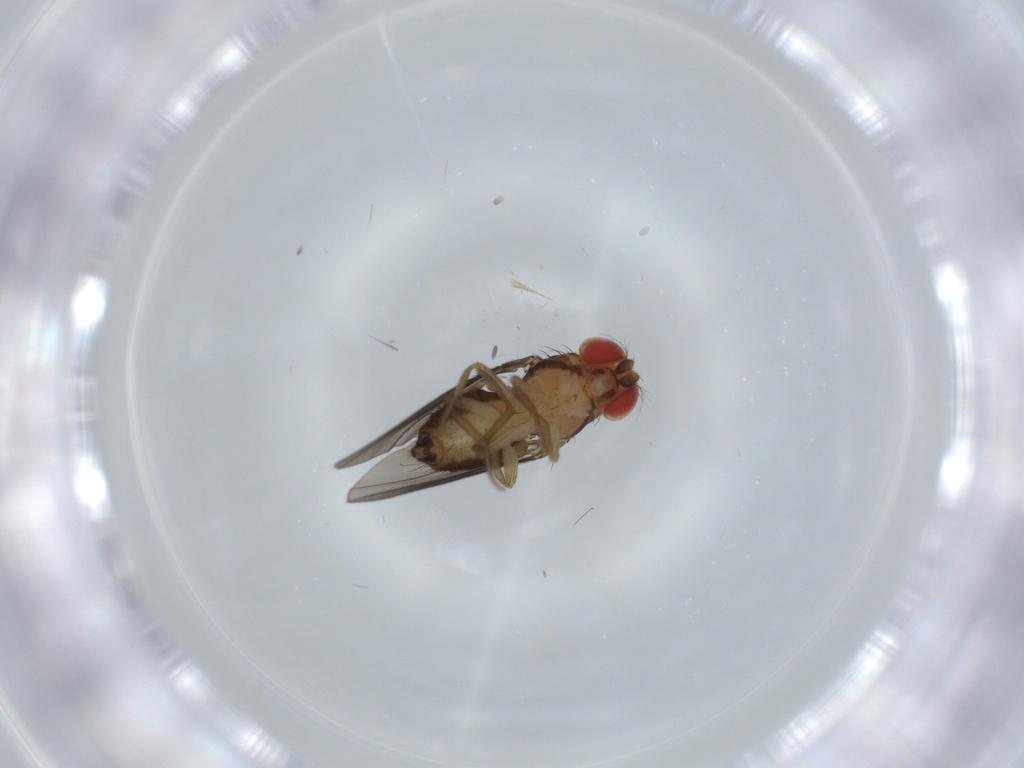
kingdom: Animalia
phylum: Arthropoda
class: Insecta
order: Diptera
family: Drosophilidae
